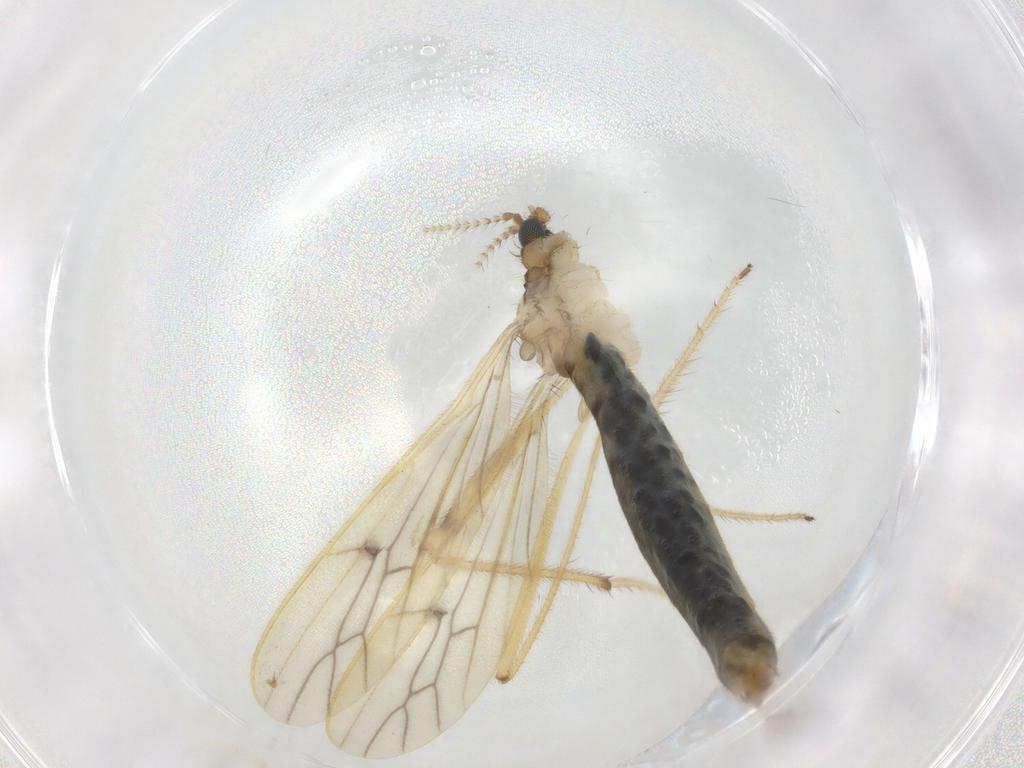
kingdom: Animalia
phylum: Arthropoda
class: Insecta
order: Diptera
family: Limoniidae
